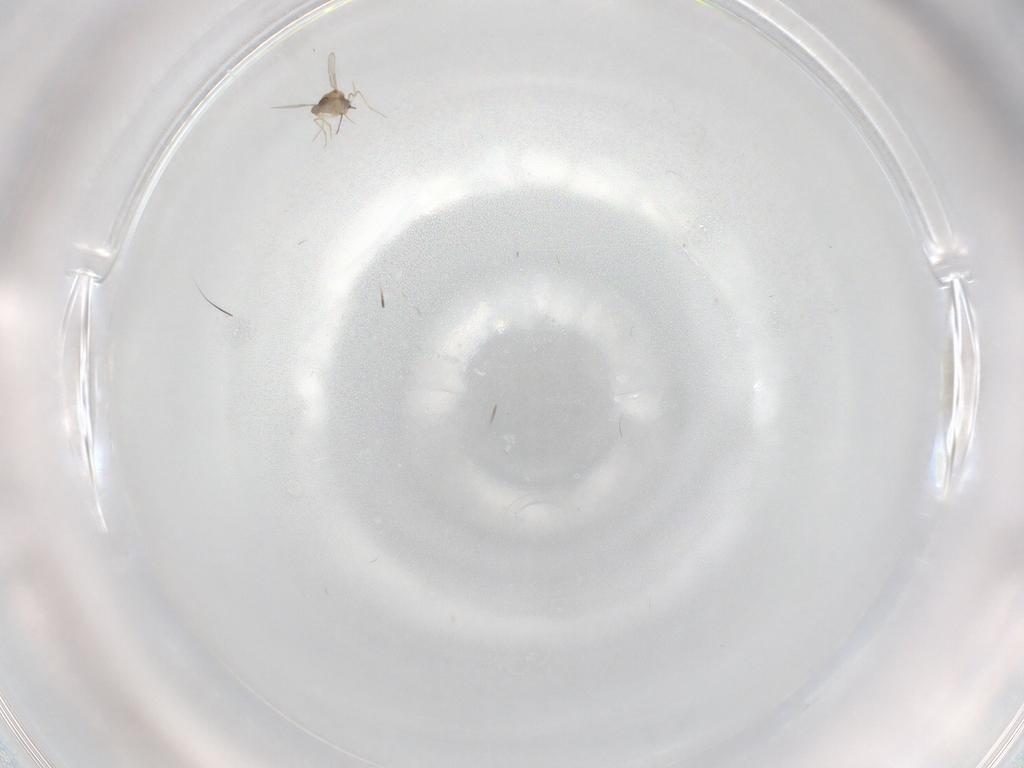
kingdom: Animalia
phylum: Arthropoda
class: Insecta
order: Diptera
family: Ceratopogonidae
